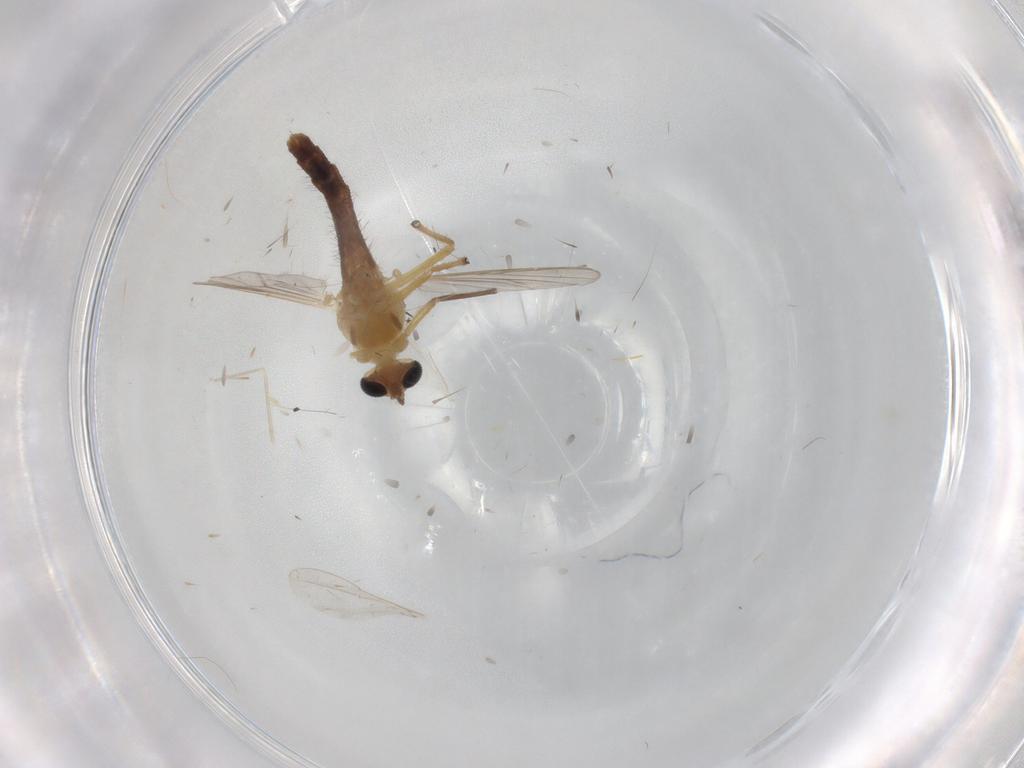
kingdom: Animalia
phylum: Arthropoda
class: Insecta
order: Diptera
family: Chironomidae
